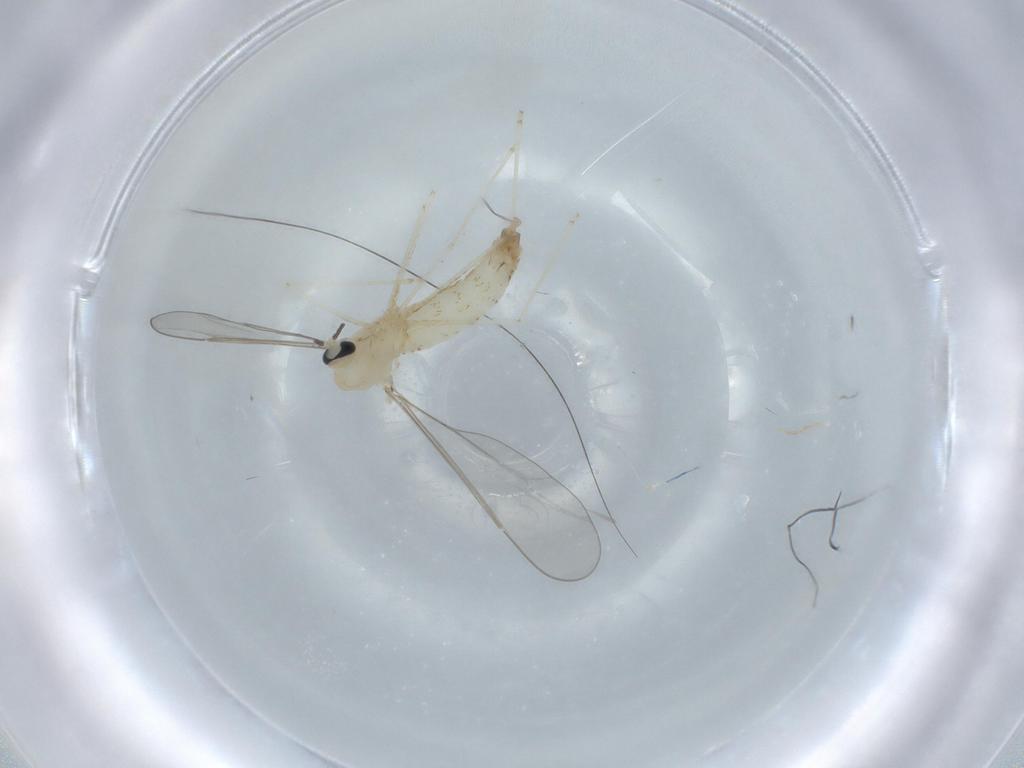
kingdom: Animalia
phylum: Arthropoda
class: Insecta
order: Diptera
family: Cecidomyiidae
